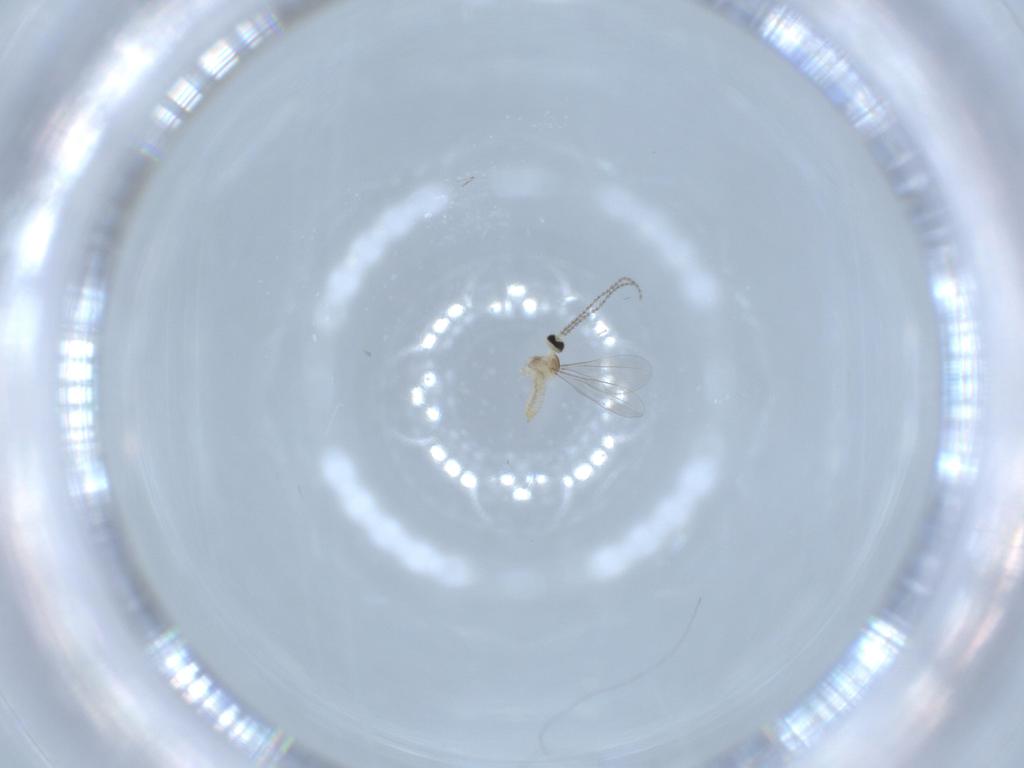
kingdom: Animalia
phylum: Arthropoda
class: Insecta
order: Diptera
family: Cecidomyiidae
